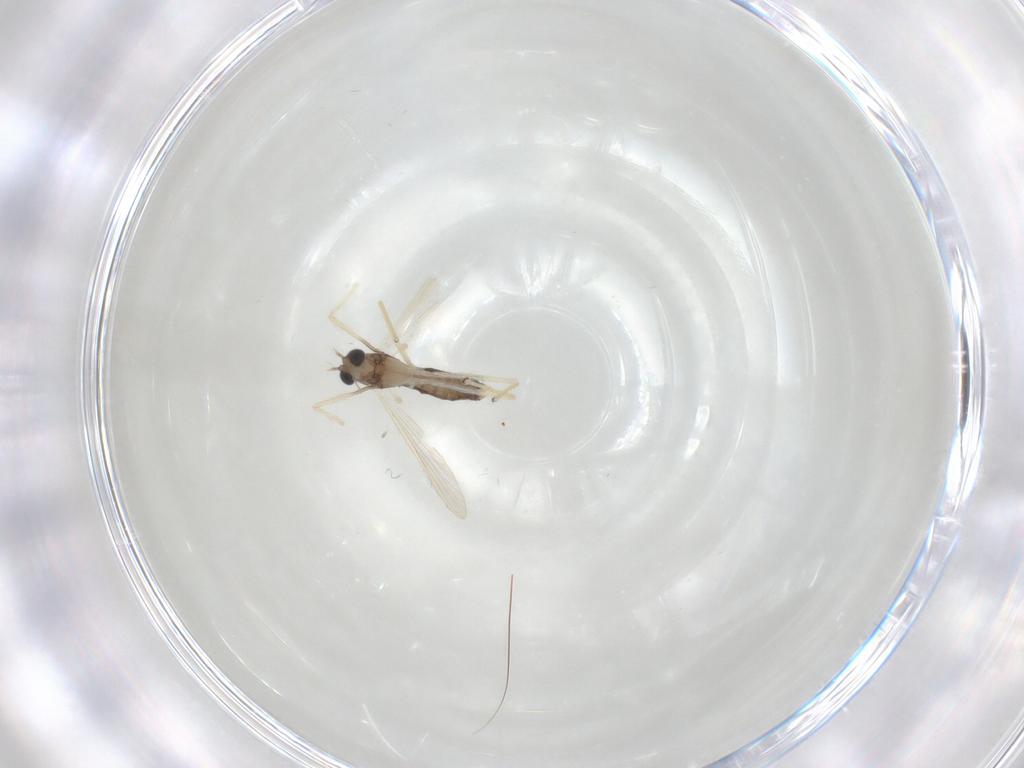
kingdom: Animalia
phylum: Arthropoda
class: Insecta
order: Diptera
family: Chironomidae
